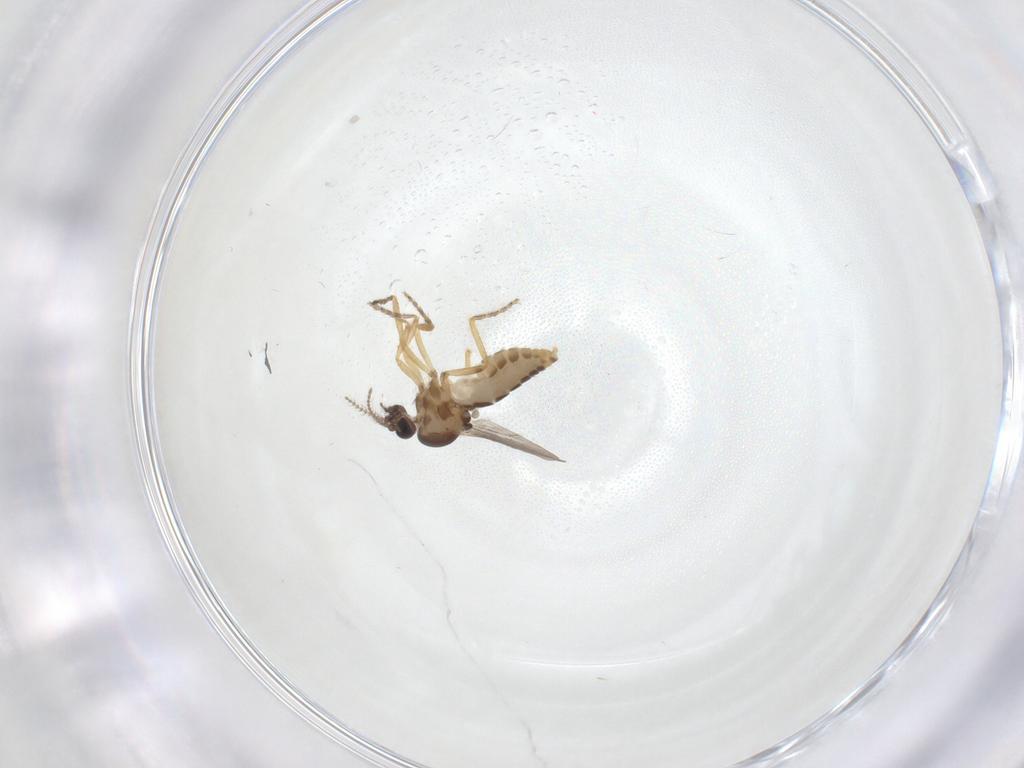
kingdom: Animalia
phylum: Arthropoda
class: Insecta
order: Diptera
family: Ceratopogonidae
